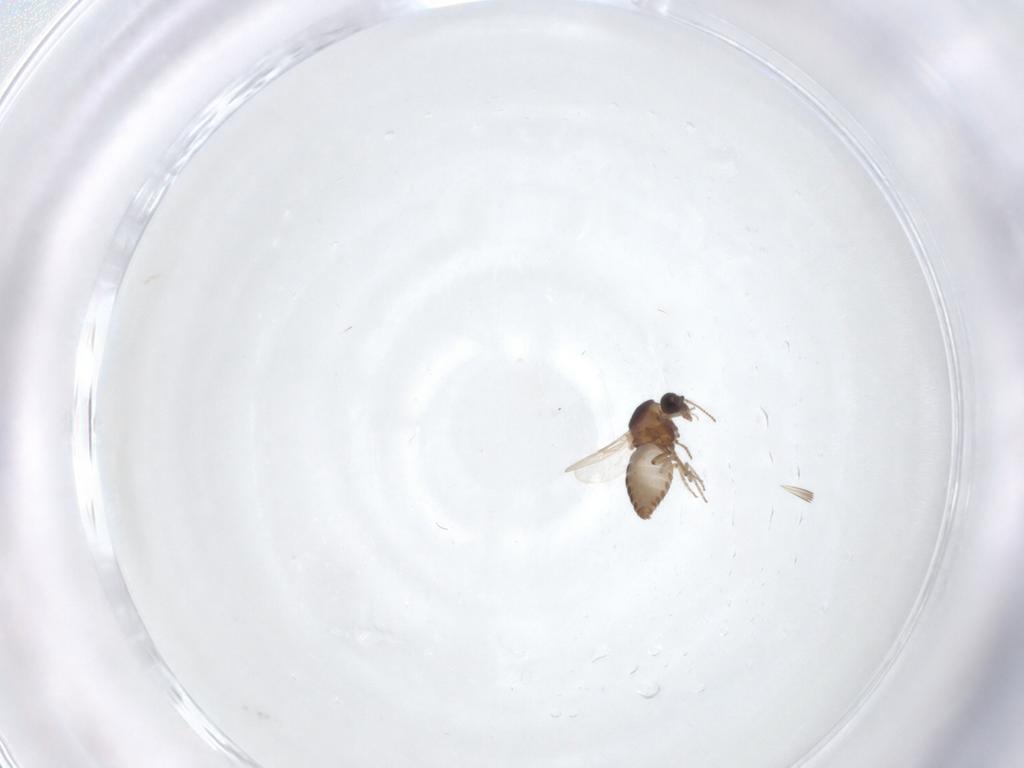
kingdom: Animalia
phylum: Arthropoda
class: Insecta
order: Diptera
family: Ceratopogonidae
